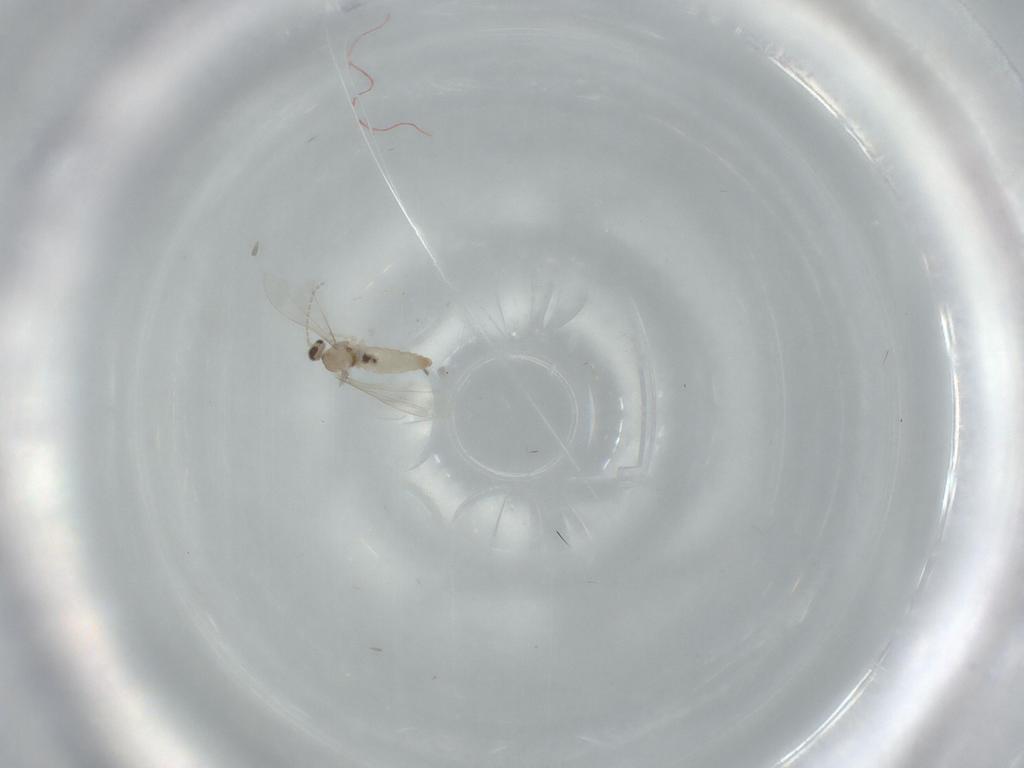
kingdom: Animalia
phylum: Arthropoda
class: Insecta
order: Diptera
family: Cecidomyiidae
